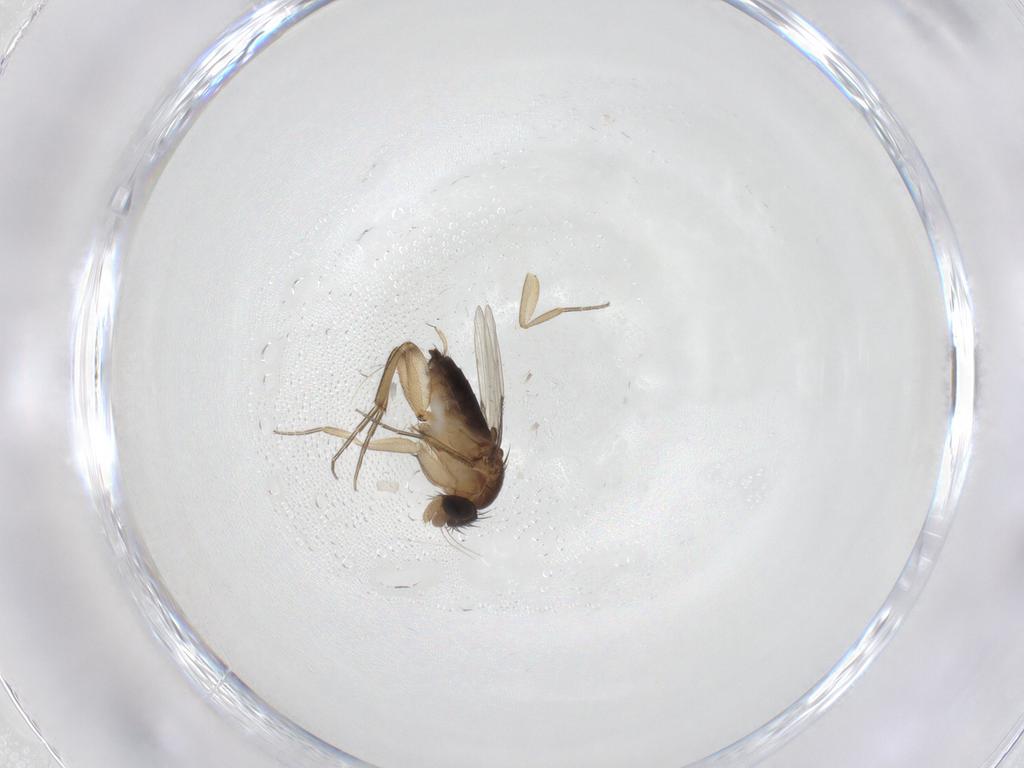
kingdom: Animalia
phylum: Arthropoda
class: Insecta
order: Diptera
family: Phoridae
